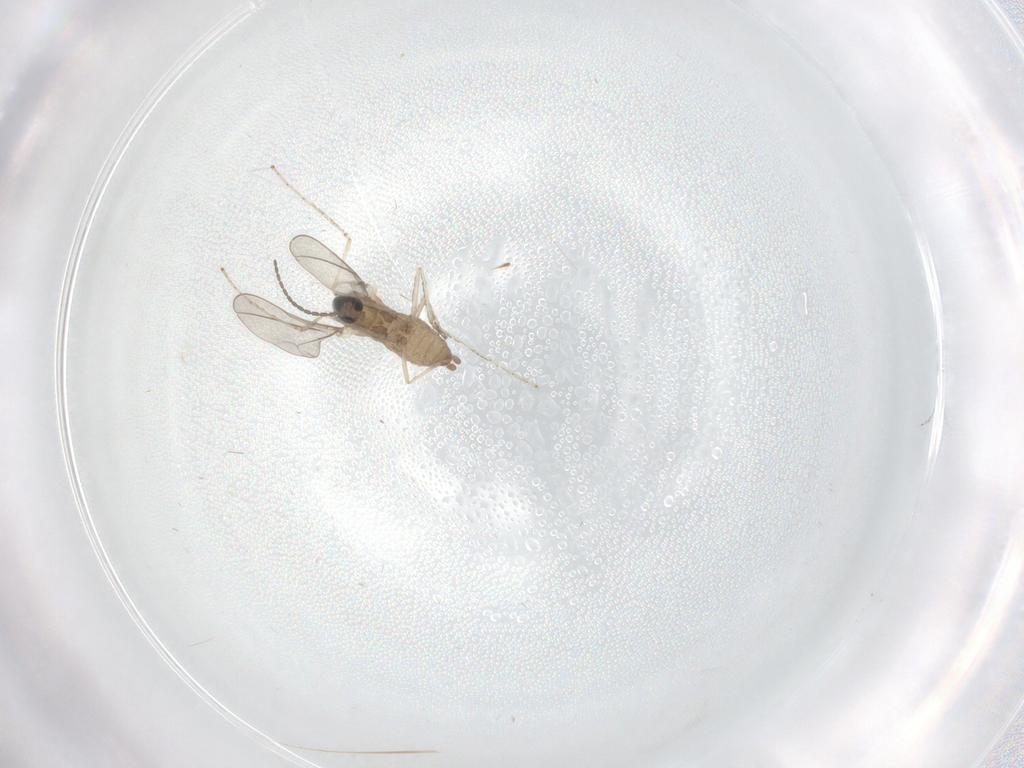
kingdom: Animalia
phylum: Arthropoda
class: Insecta
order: Diptera
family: Cecidomyiidae
